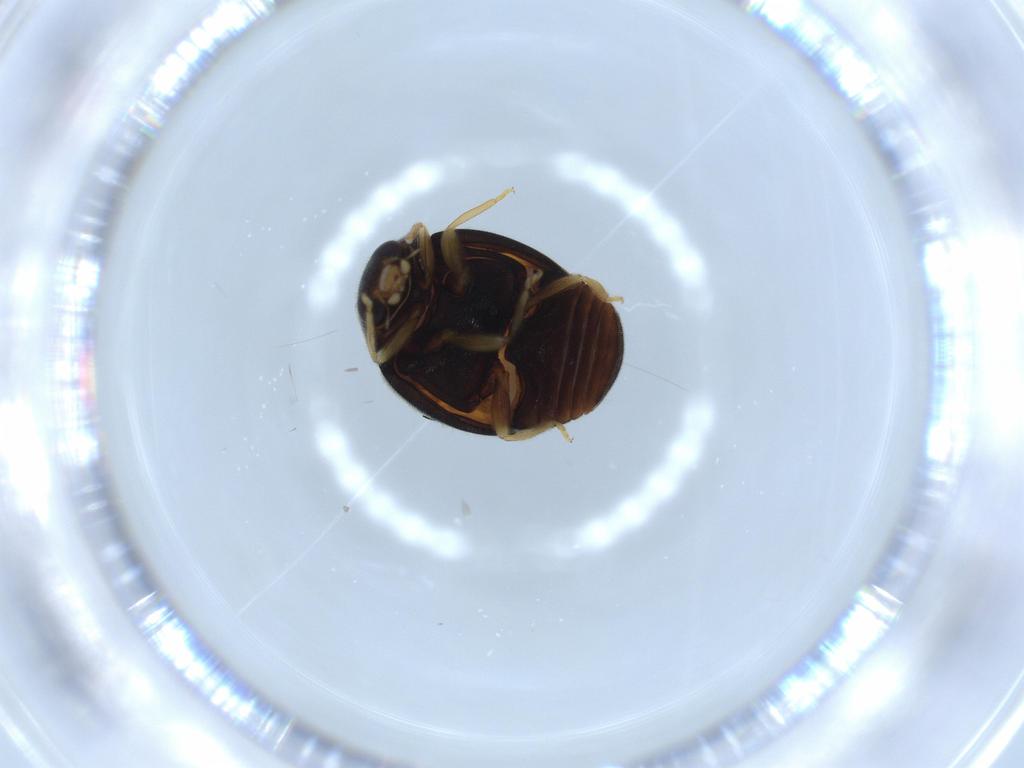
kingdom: Animalia
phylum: Arthropoda
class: Insecta
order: Coleoptera
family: Coccinellidae
